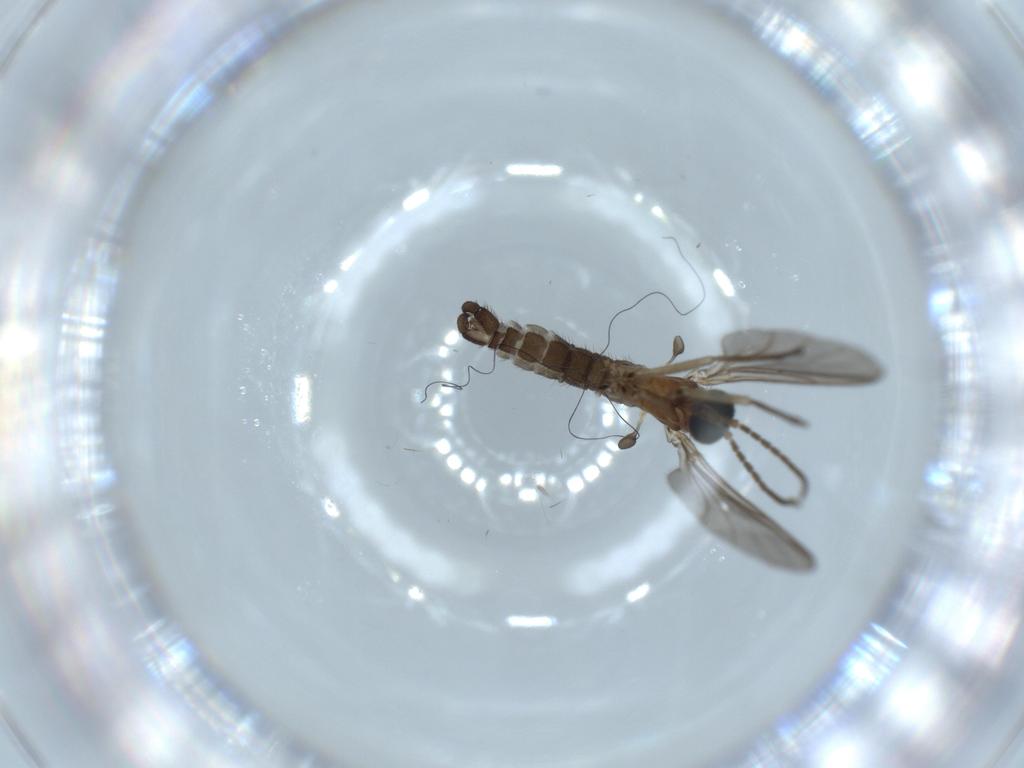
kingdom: Animalia
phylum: Arthropoda
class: Insecta
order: Diptera
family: Sciaridae
